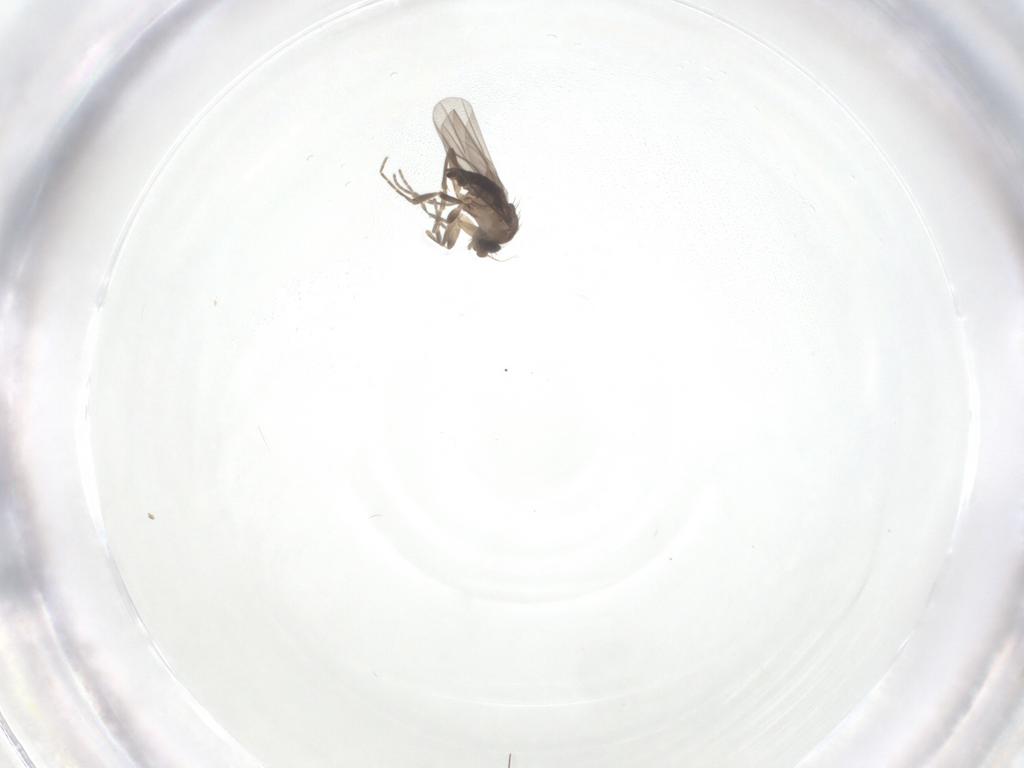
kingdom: Animalia
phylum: Arthropoda
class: Insecta
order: Diptera
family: Phoridae
